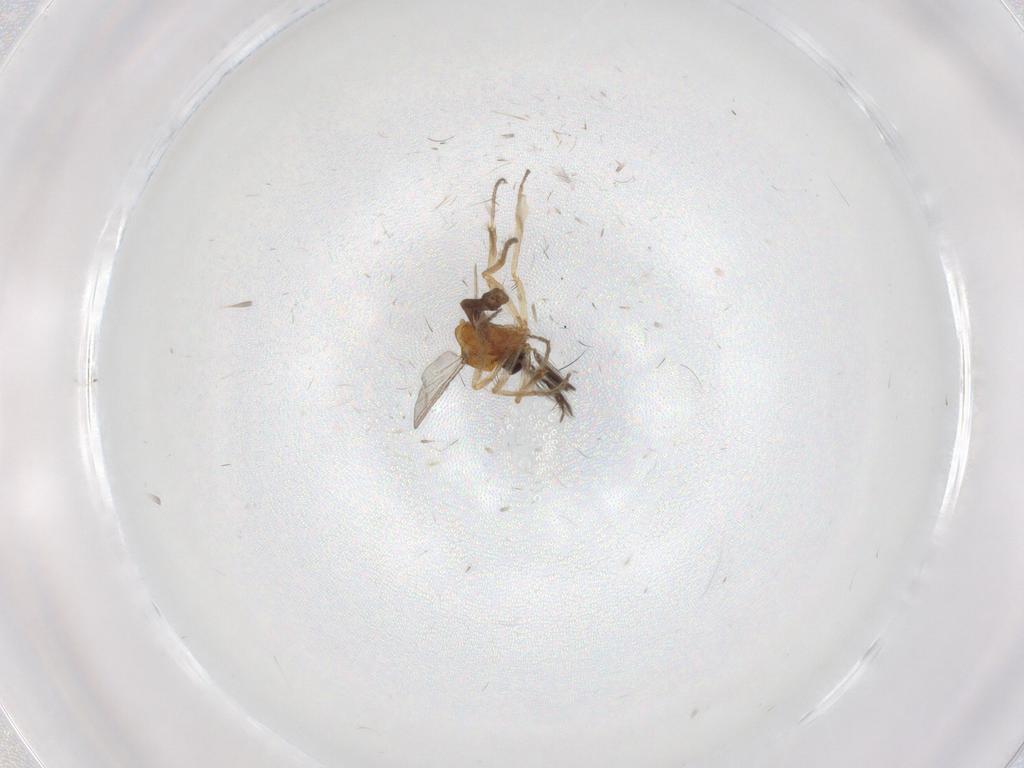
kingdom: Animalia
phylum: Arthropoda
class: Insecta
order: Diptera
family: Ceratopogonidae
